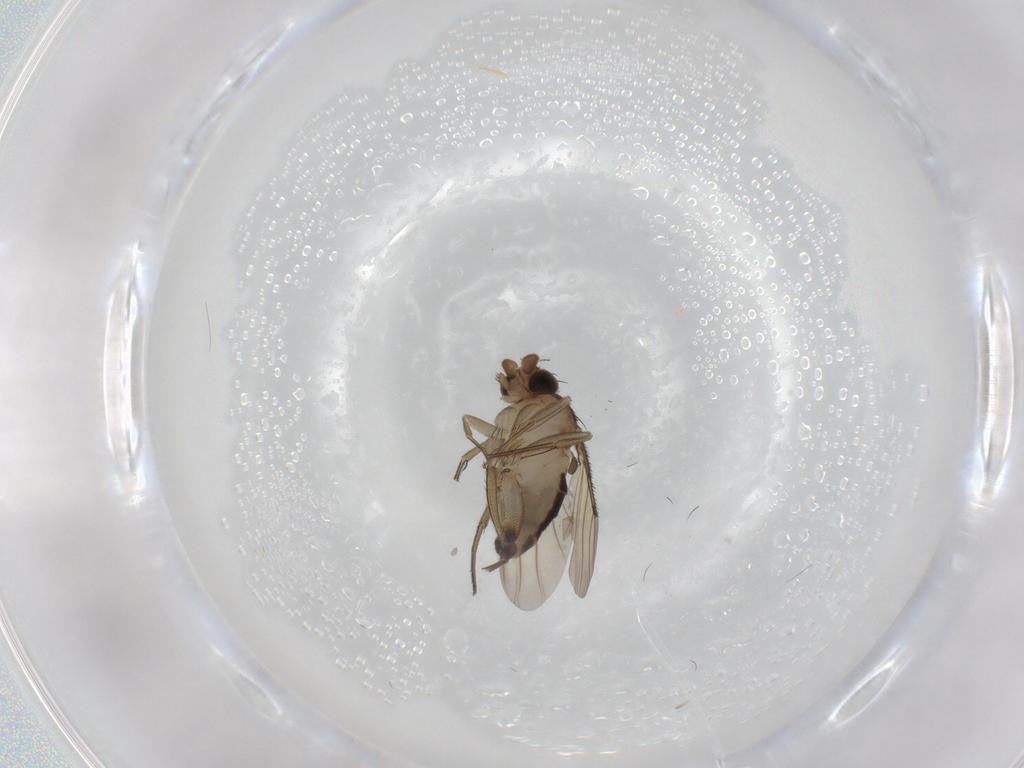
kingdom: Animalia
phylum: Arthropoda
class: Insecta
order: Diptera
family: Phoridae
